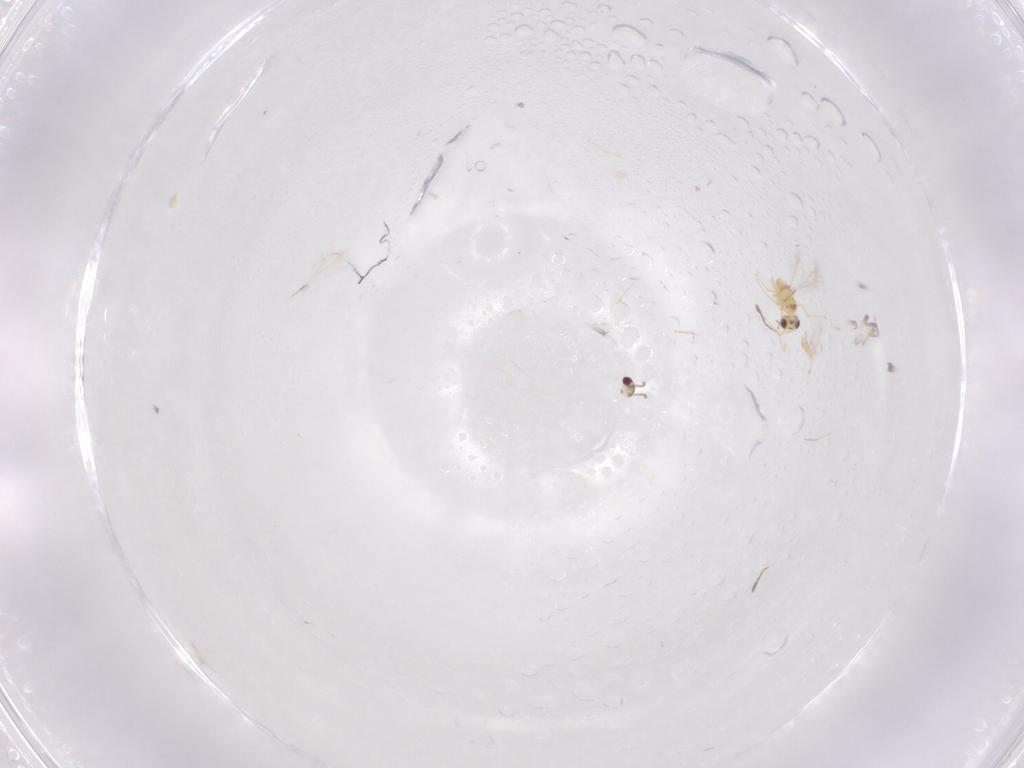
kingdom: Animalia
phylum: Arthropoda
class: Insecta
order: Hymenoptera
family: Mymaridae
